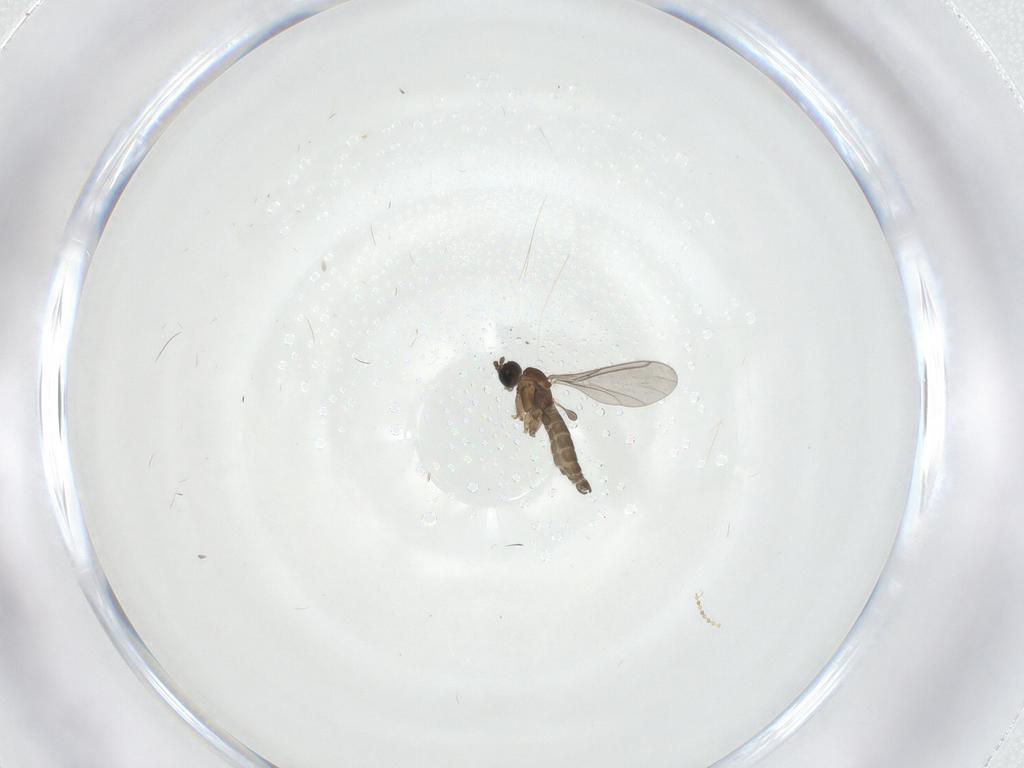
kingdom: Animalia
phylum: Arthropoda
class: Insecta
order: Diptera
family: Sciaridae
